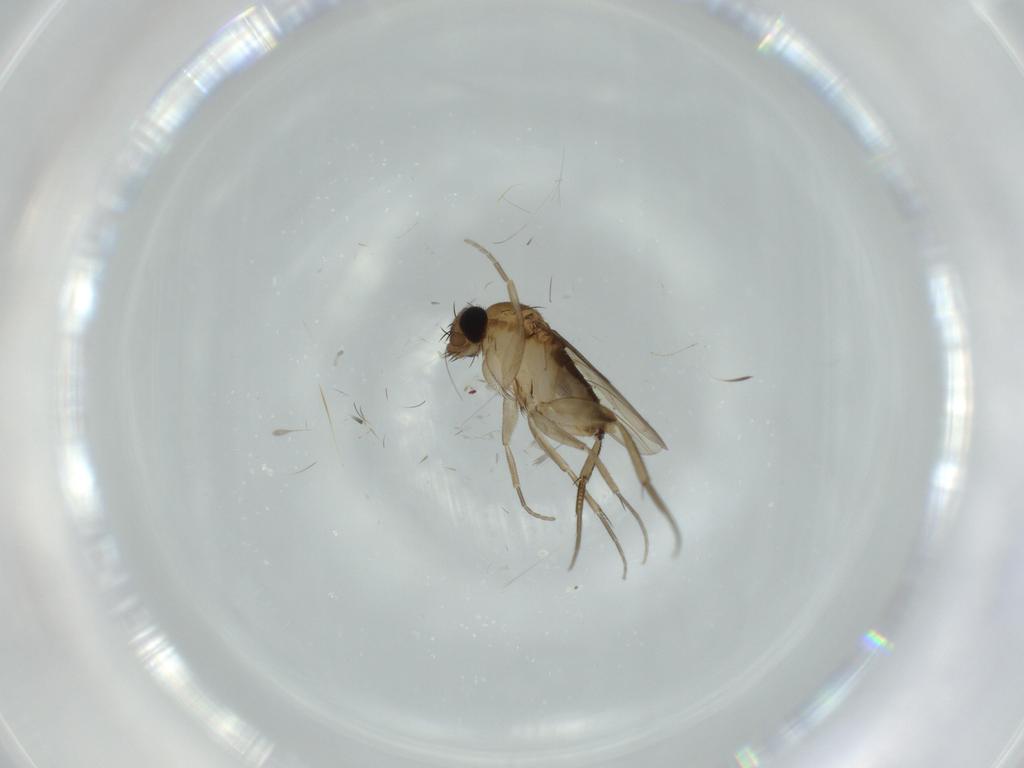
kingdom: Animalia
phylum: Arthropoda
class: Insecta
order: Diptera
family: Phoridae
